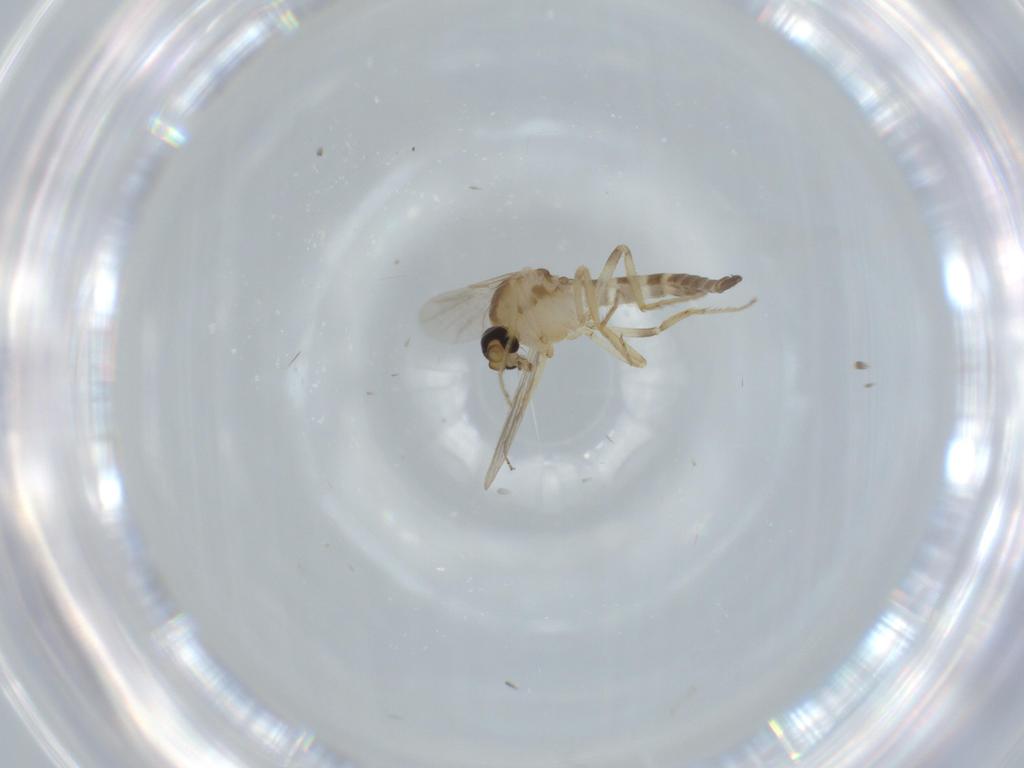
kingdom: Animalia
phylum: Arthropoda
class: Insecta
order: Diptera
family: Ceratopogonidae
